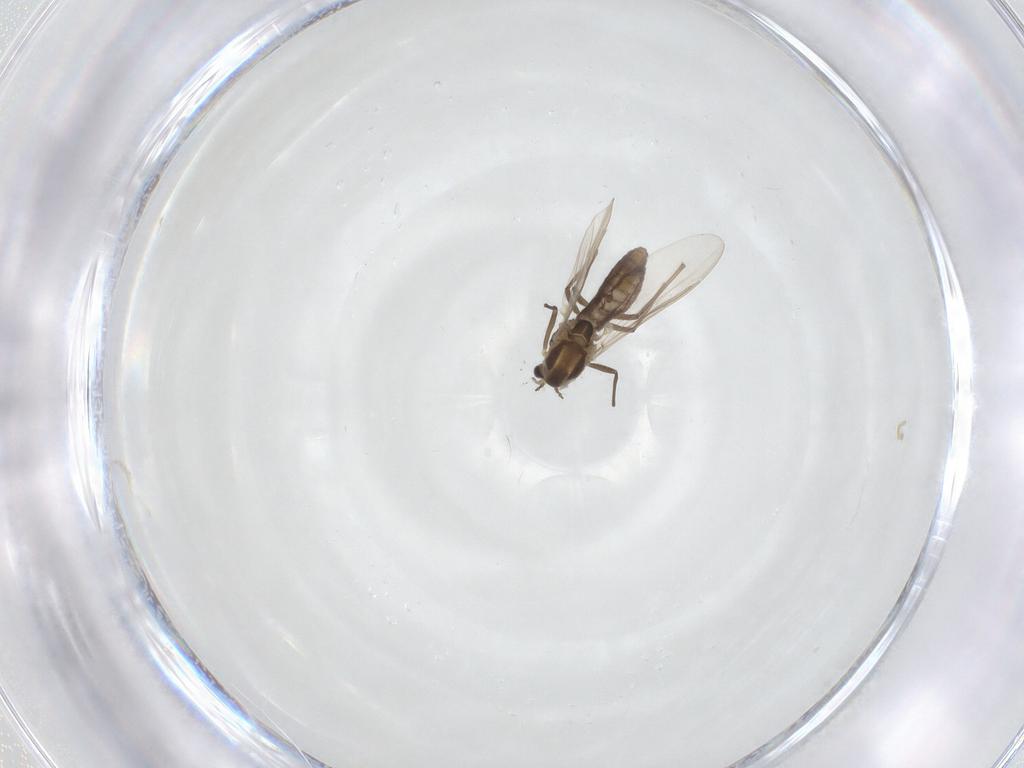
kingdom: Animalia
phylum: Arthropoda
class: Insecta
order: Diptera
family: Chironomidae
